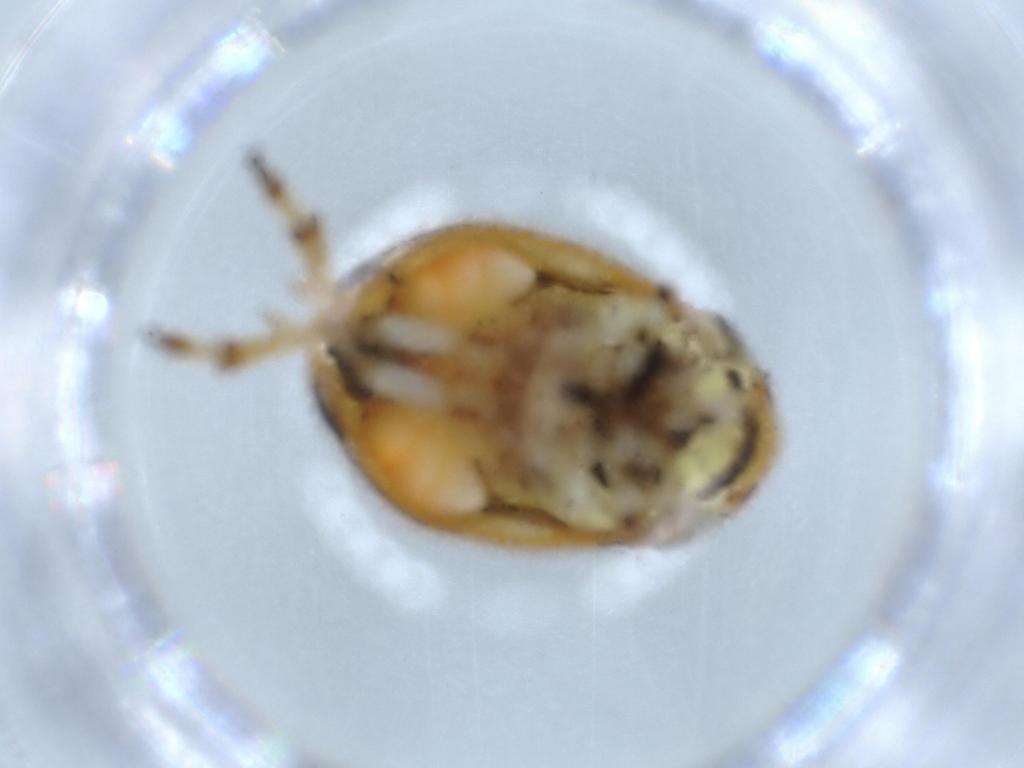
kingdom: Animalia
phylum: Arthropoda
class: Insecta
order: Hemiptera
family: Clastopteridae
